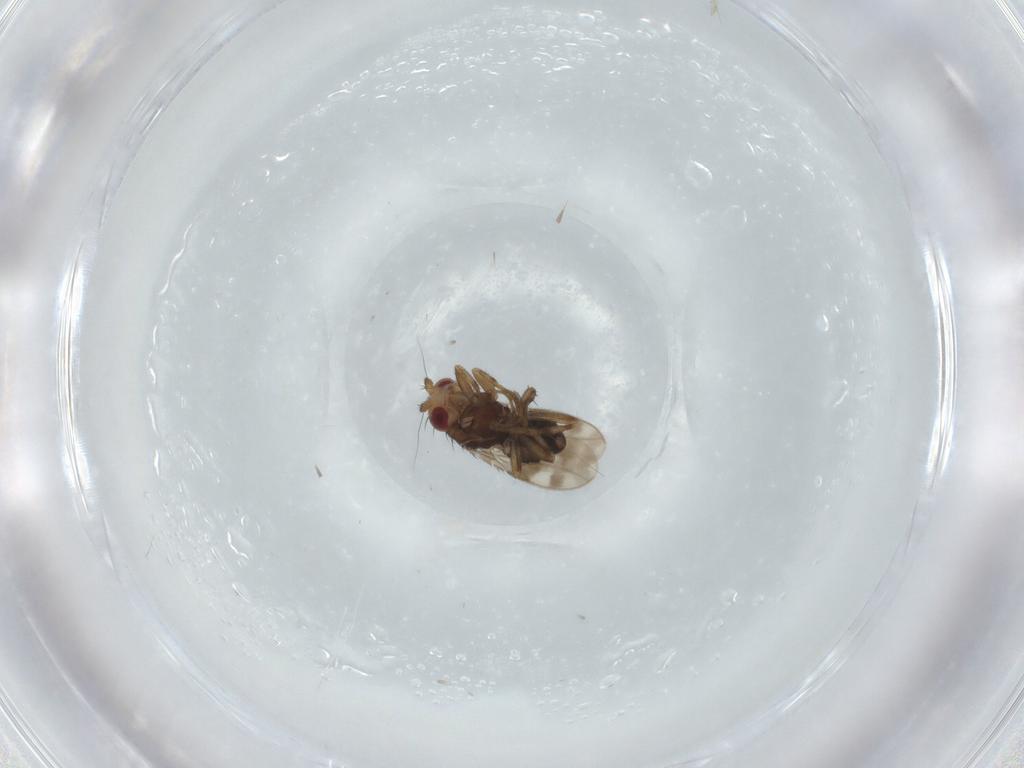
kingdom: Animalia
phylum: Arthropoda
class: Insecta
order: Diptera
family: Sphaeroceridae
